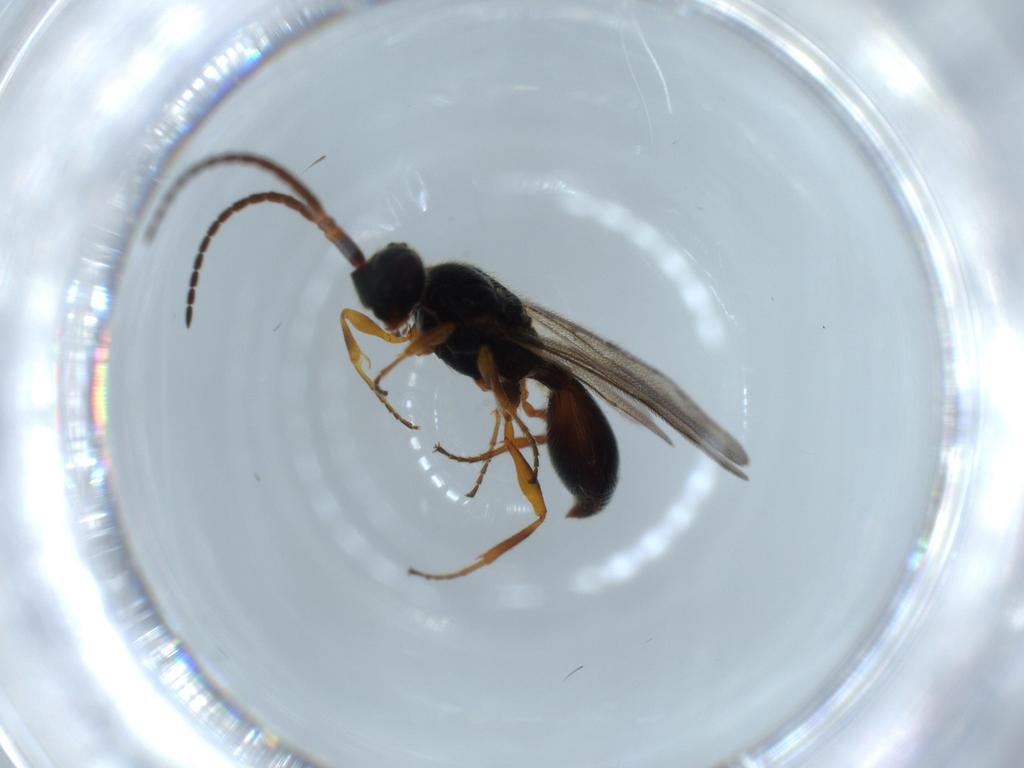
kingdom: Animalia
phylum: Arthropoda
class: Insecta
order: Hymenoptera
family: Diapriidae
